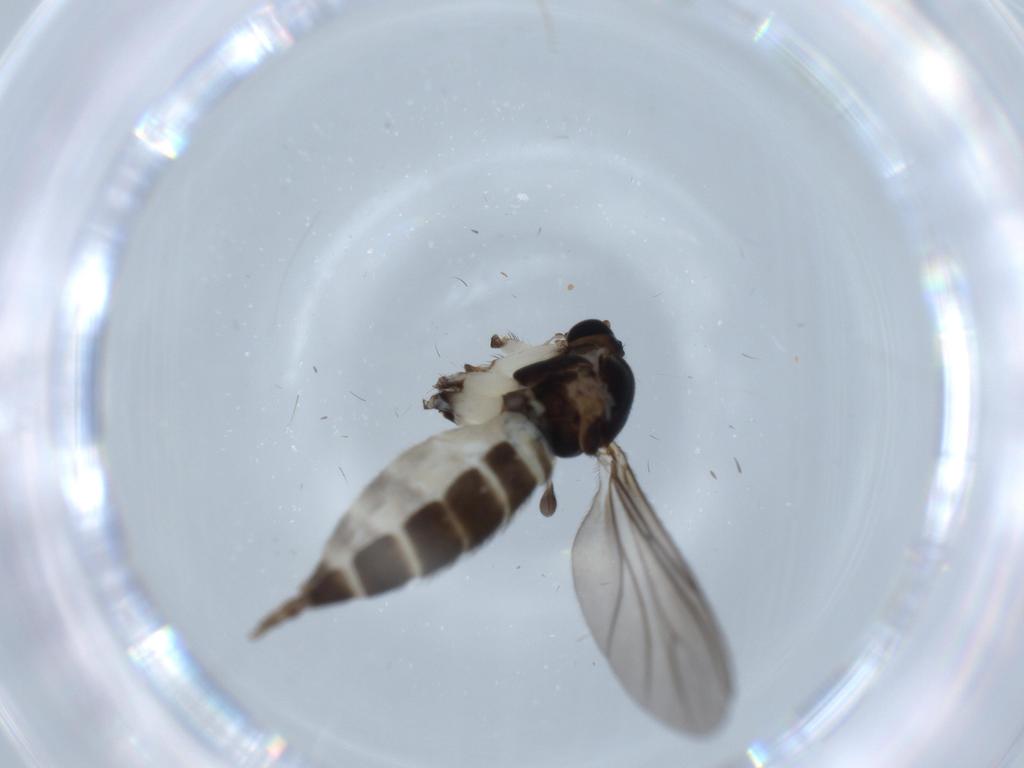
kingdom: Animalia
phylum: Arthropoda
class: Insecta
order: Diptera
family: Sciaridae
